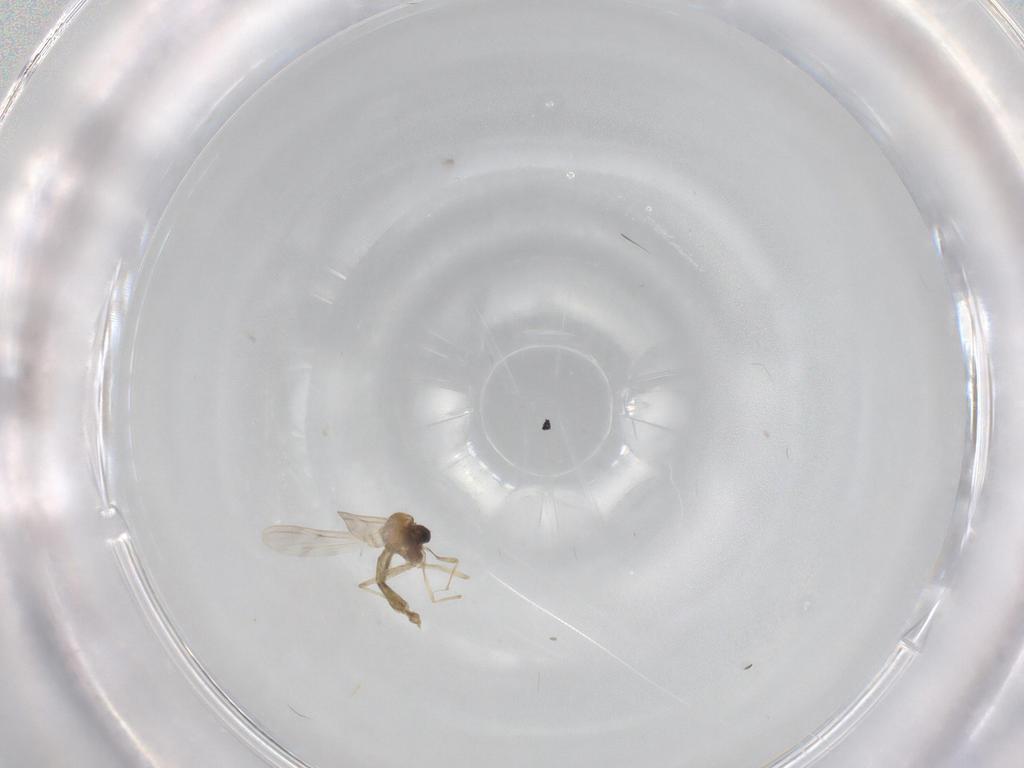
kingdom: Animalia
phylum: Arthropoda
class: Insecta
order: Diptera
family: Chironomidae
